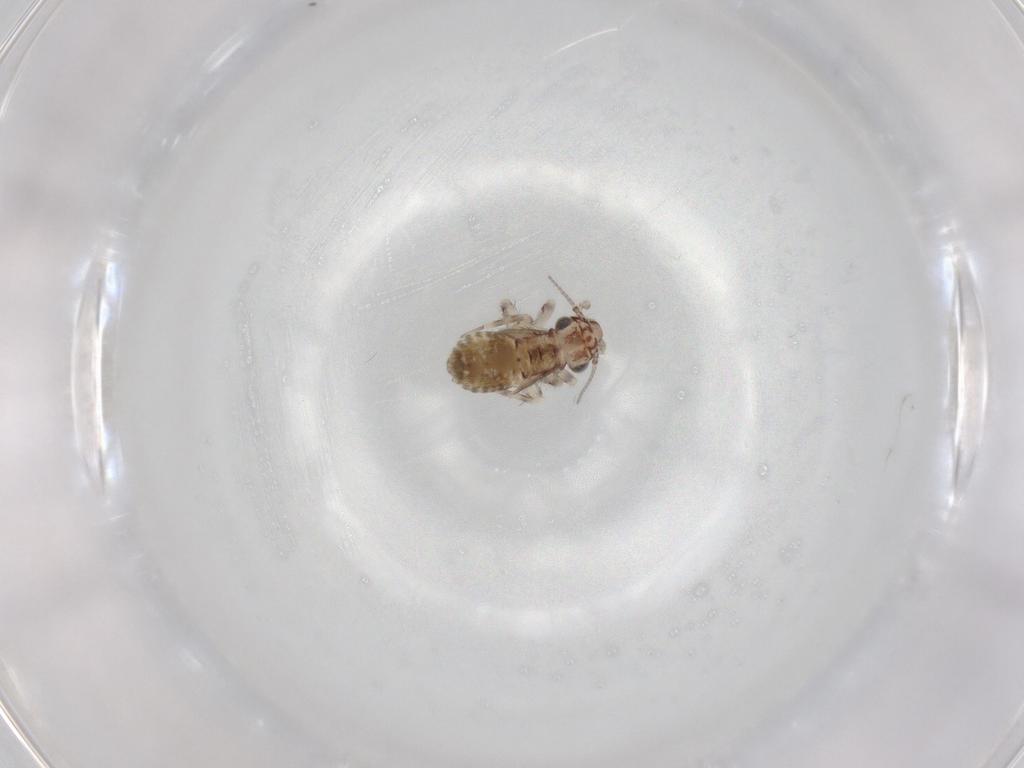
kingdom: Animalia
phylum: Arthropoda
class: Insecta
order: Psocodea
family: Lepidopsocidae
